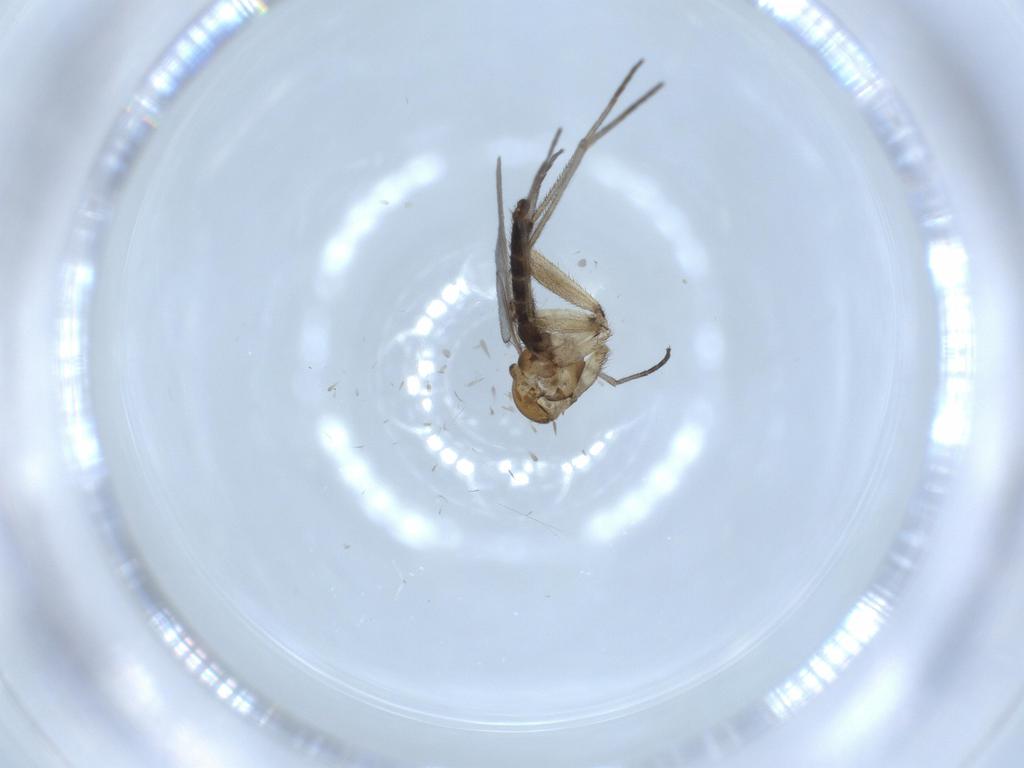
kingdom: Animalia
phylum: Arthropoda
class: Insecta
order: Diptera
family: Sciaridae
